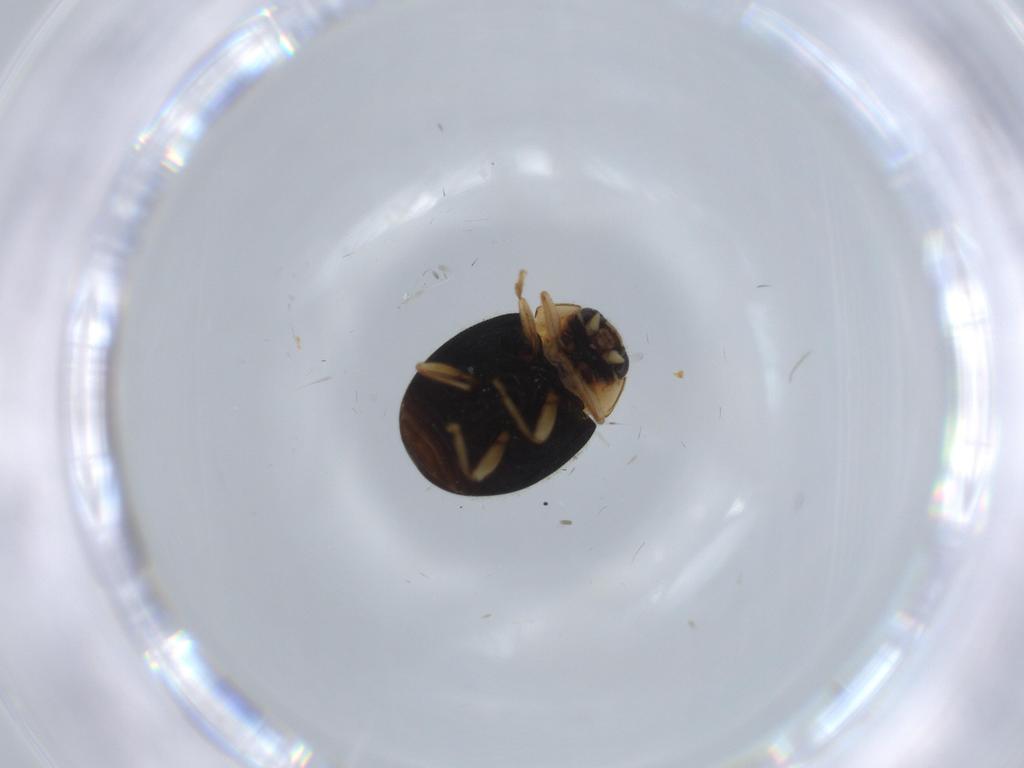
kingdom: Animalia
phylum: Arthropoda
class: Insecta
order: Coleoptera
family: Coccinellidae
